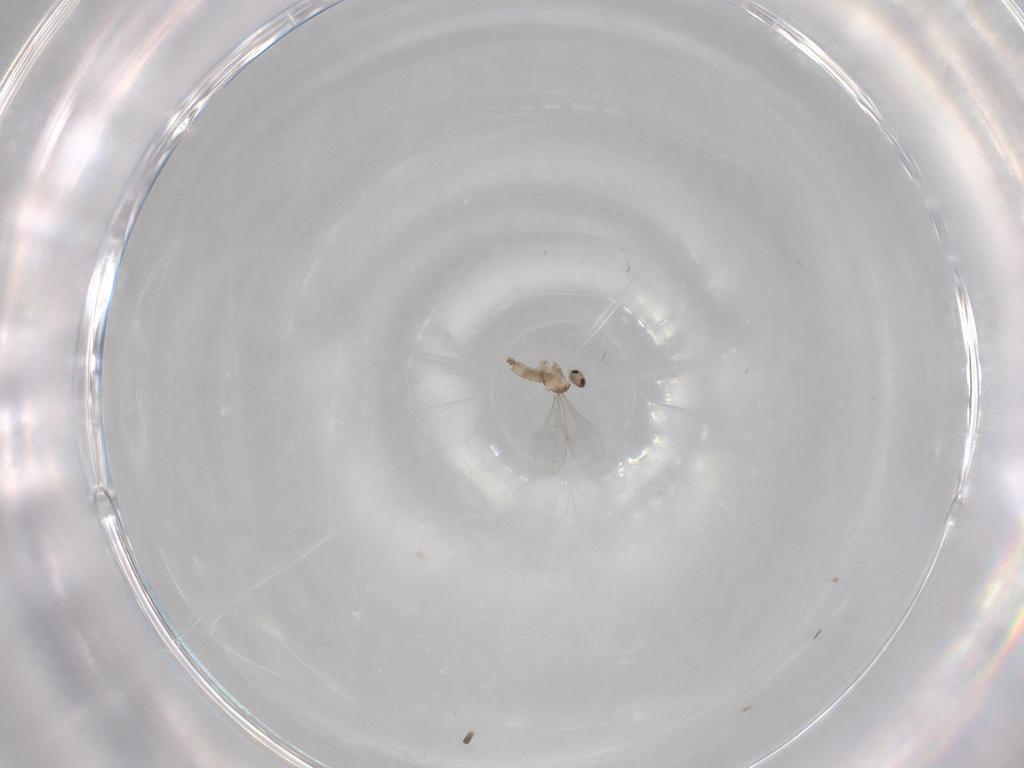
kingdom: Animalia
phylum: Arthropoda
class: Insecta
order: Diptera
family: Cecidomyiidae
